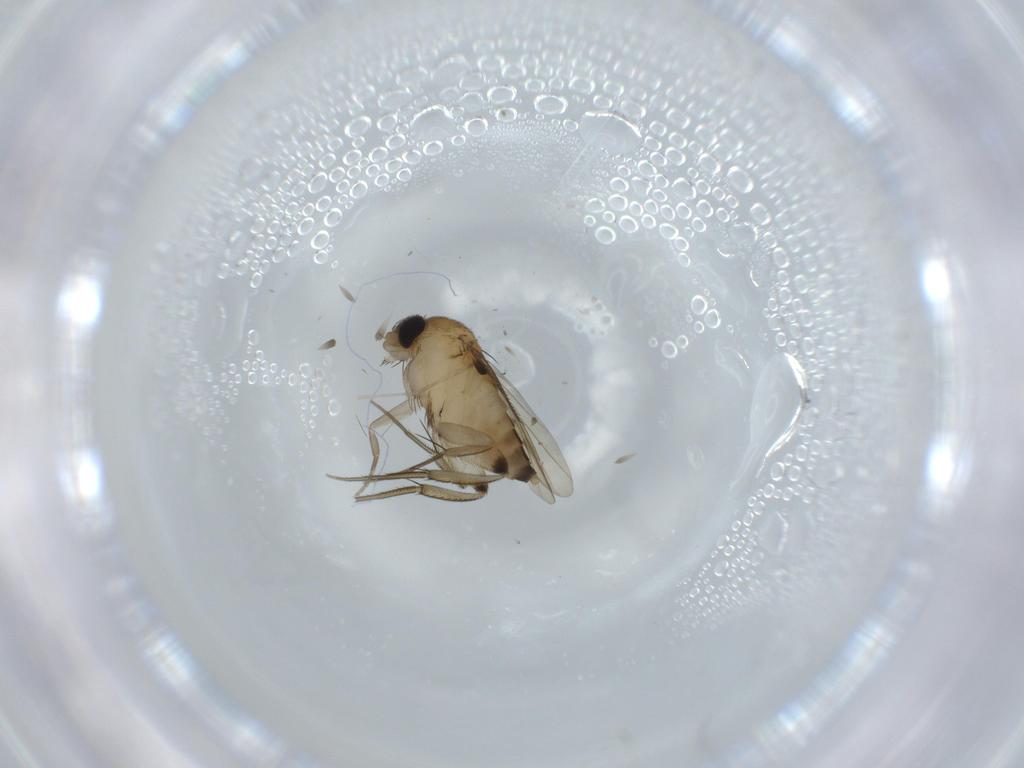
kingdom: Animalia
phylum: Arthropoda
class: Insecta
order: Diptera
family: Phoridae
